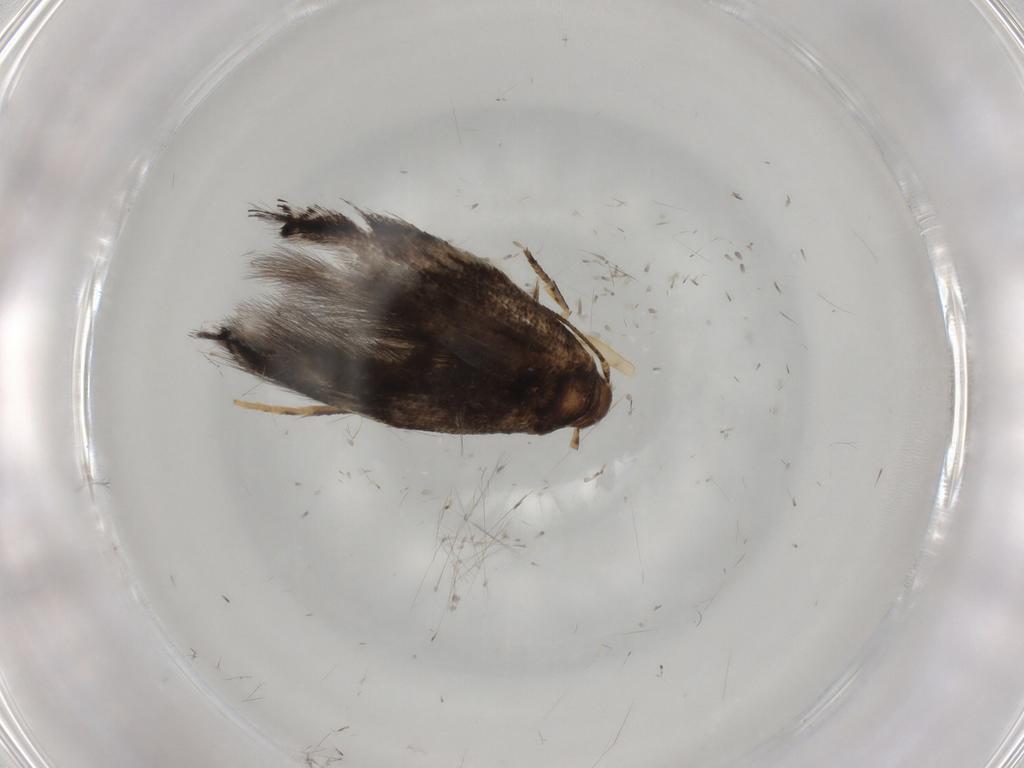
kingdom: Animalia
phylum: Arthropoda
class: Insecta
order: Lepidoptera
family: Elachistidae
